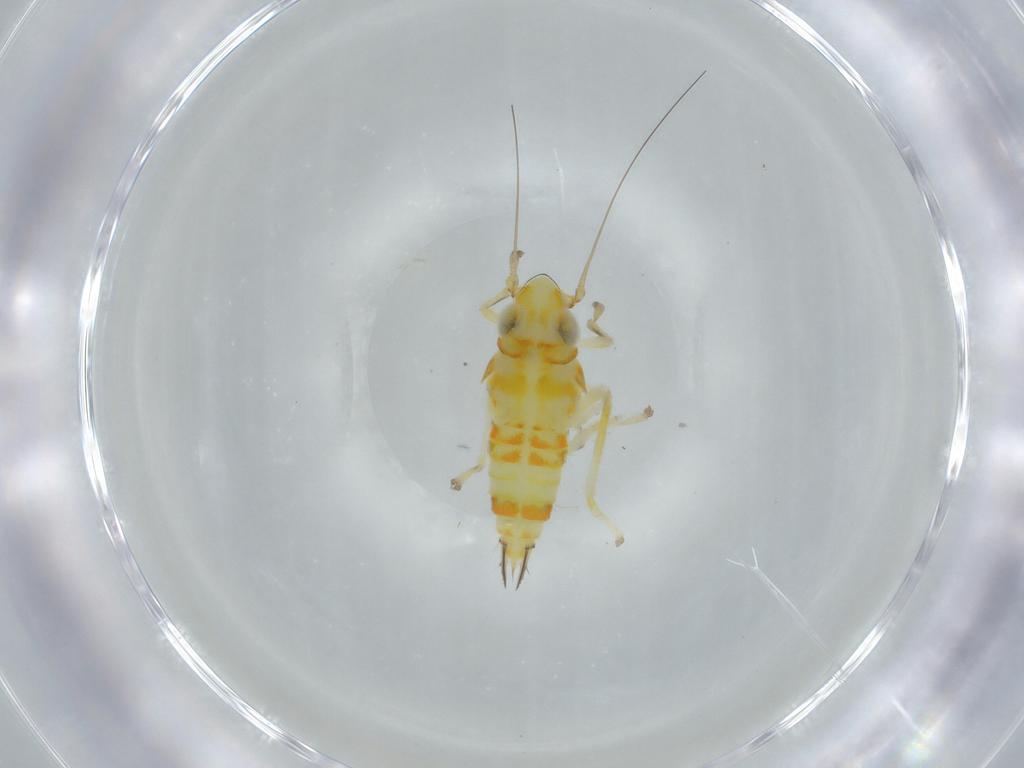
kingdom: Animalia
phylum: Arthropoda
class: Insecta
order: Hemiptera
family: Cicadellidae
